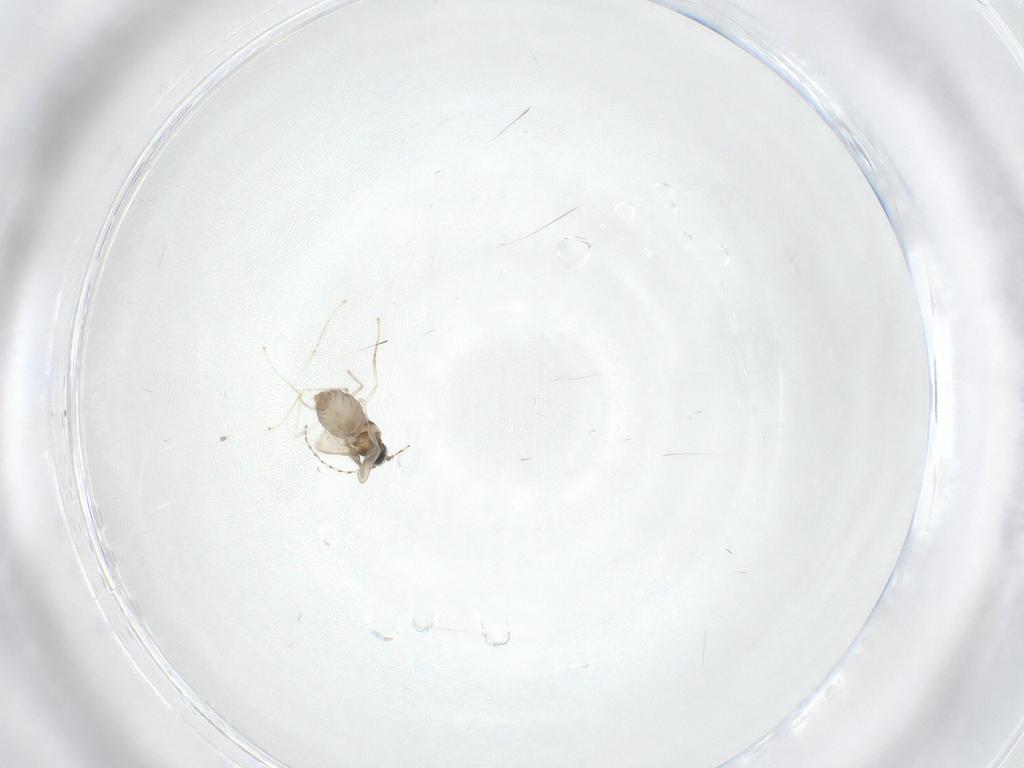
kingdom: Animalia
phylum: Arthropoda
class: Insecta
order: Diptera
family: Cecidomyiidae
